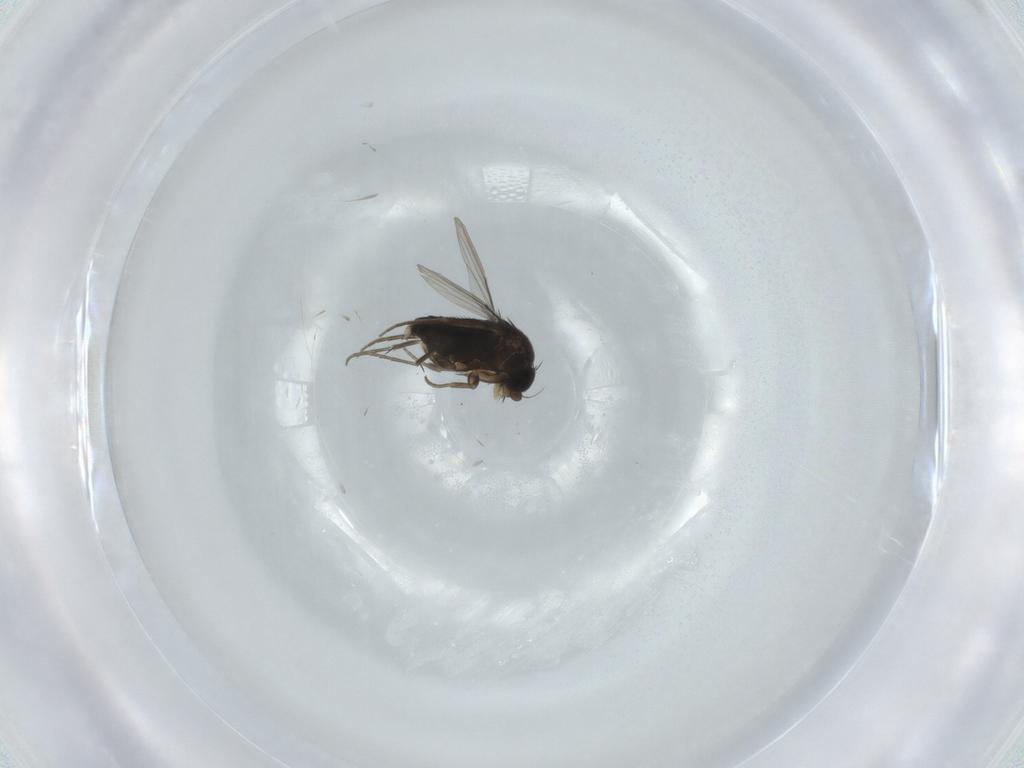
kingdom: Animalia
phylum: Arthropoda
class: Insecta
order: Diptera
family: Phoridae
